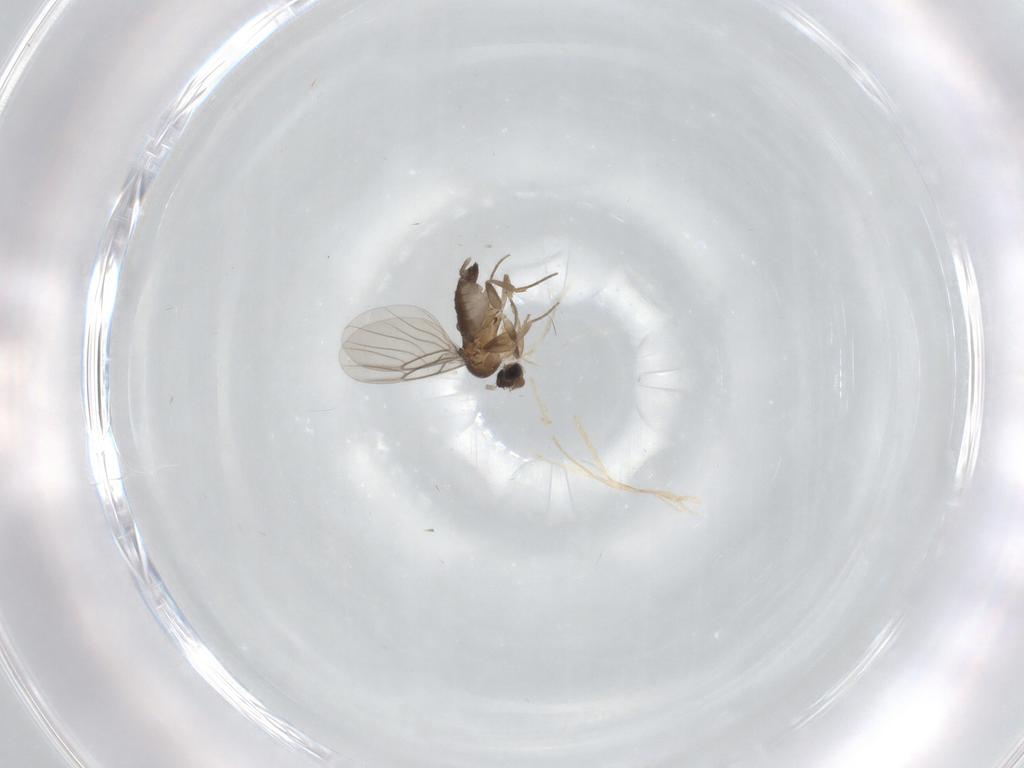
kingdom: Animalia
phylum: Arthropoda
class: Insecta
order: Diptera
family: Phoridae
